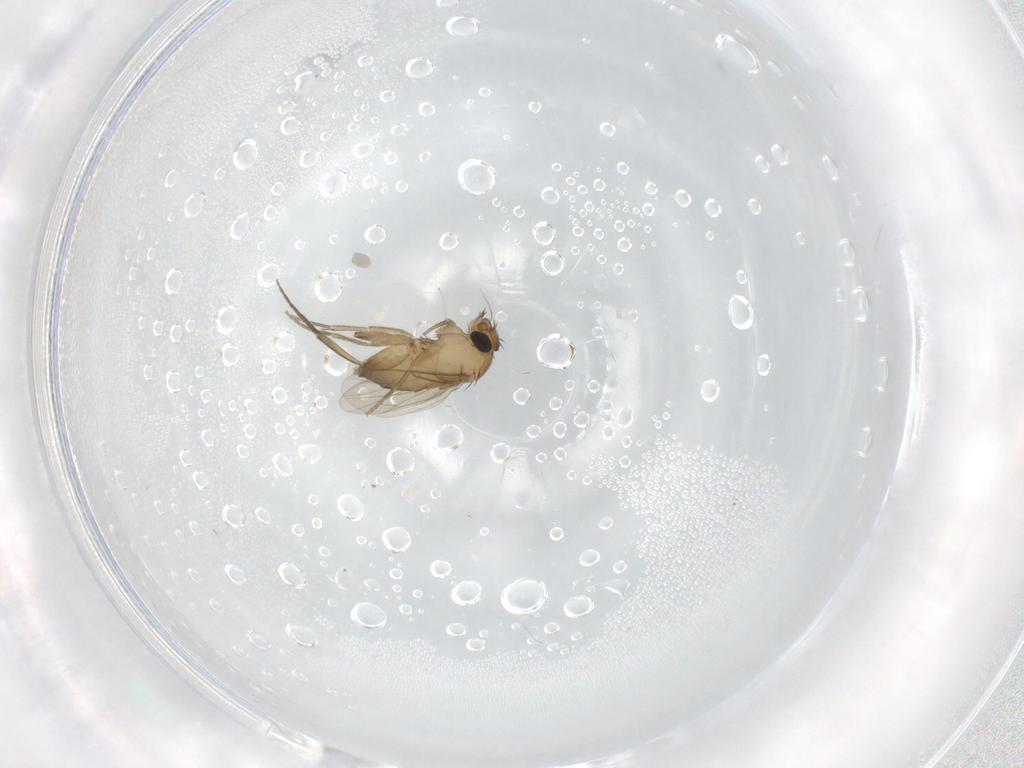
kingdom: Animalia
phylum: Arthropoda
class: Insecta
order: Diptera
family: Phoridae
